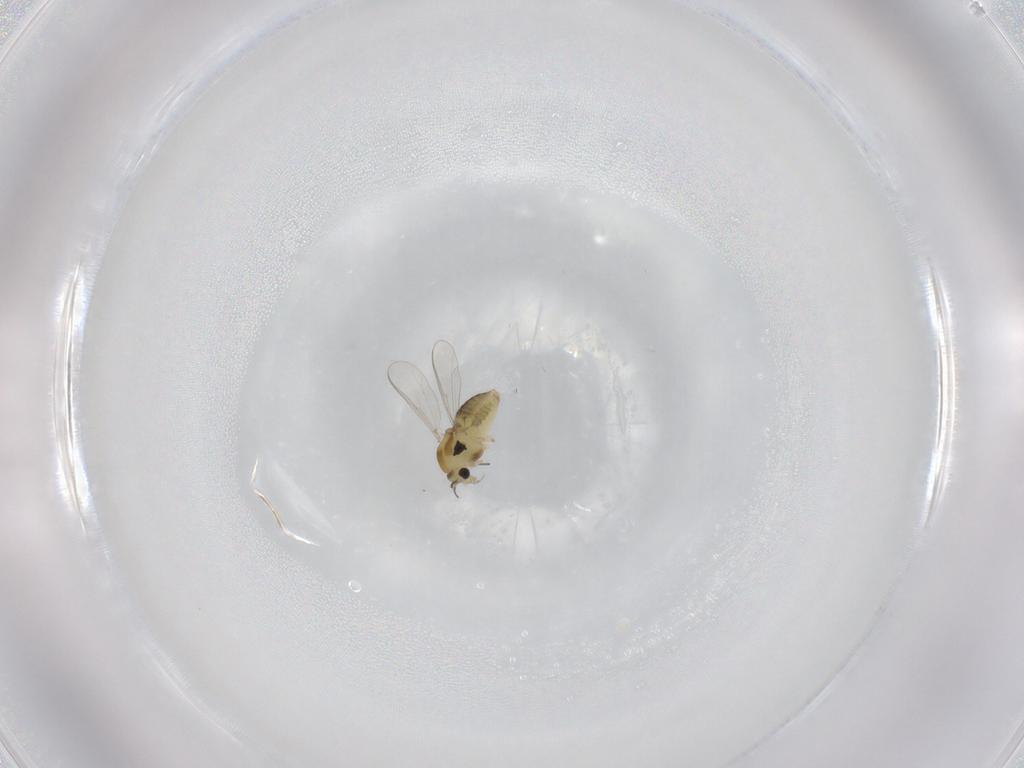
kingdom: Animalia
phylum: Arthropoda
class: Insecta
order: Diptera
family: Chironomidae
